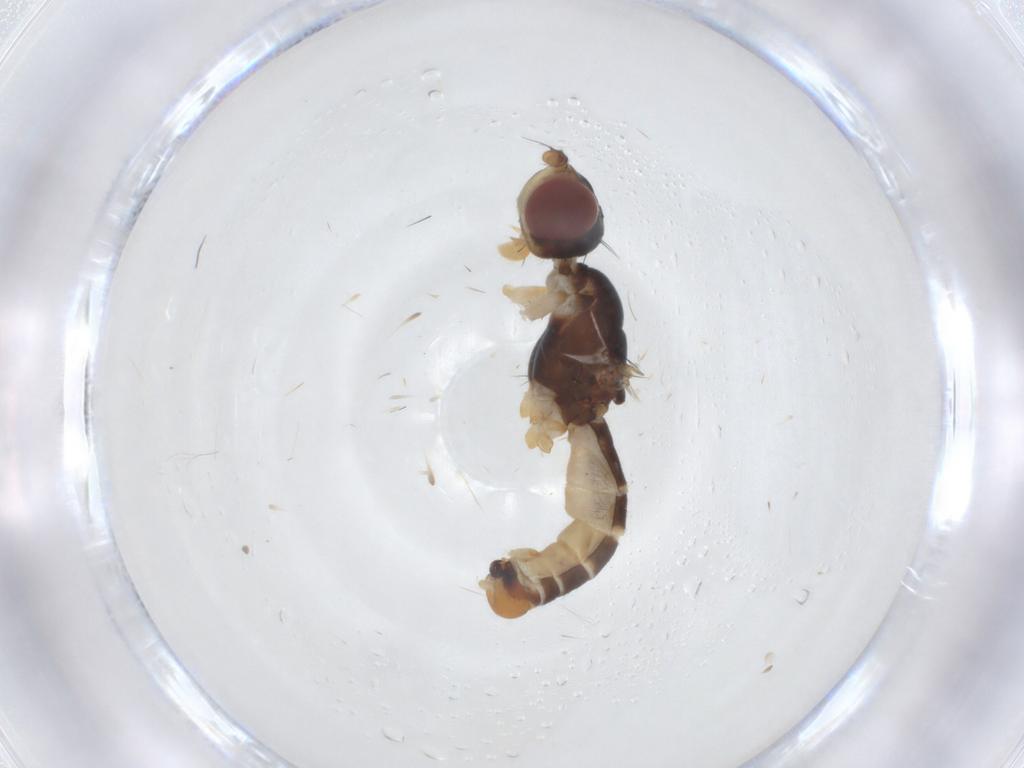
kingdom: Animalia
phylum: Arthropoda
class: Insecta
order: Diptera
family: Micropezidae
